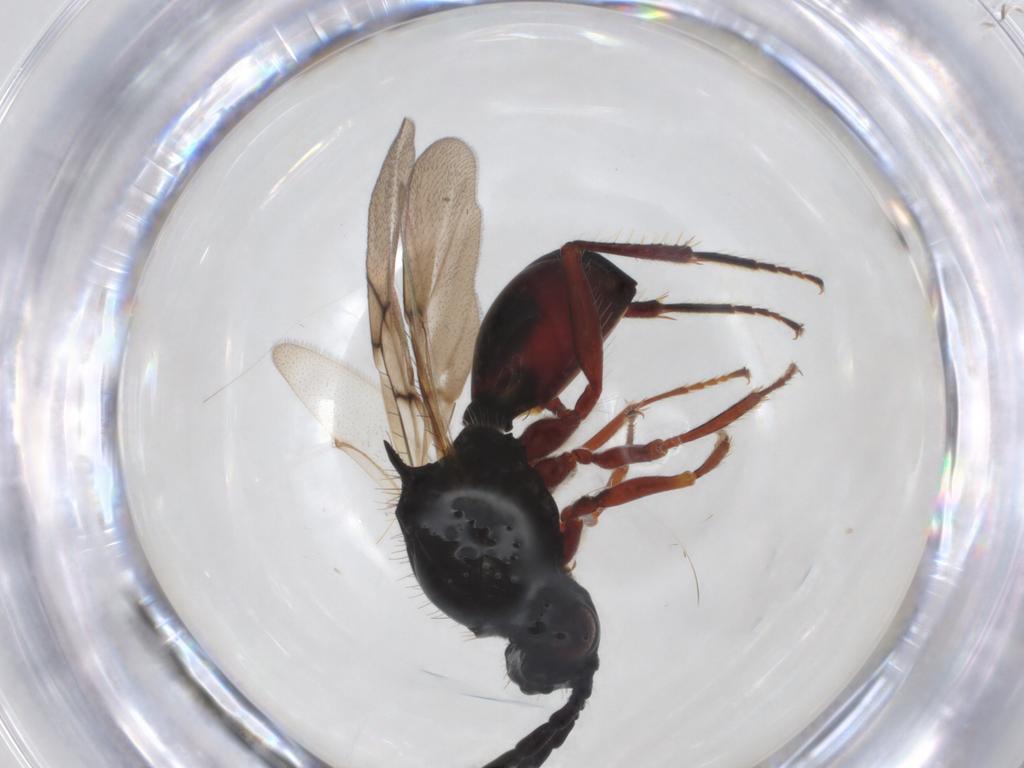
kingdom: Animalia
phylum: Arthropoda
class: Insecta
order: Hymenoptera
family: Figitidae
